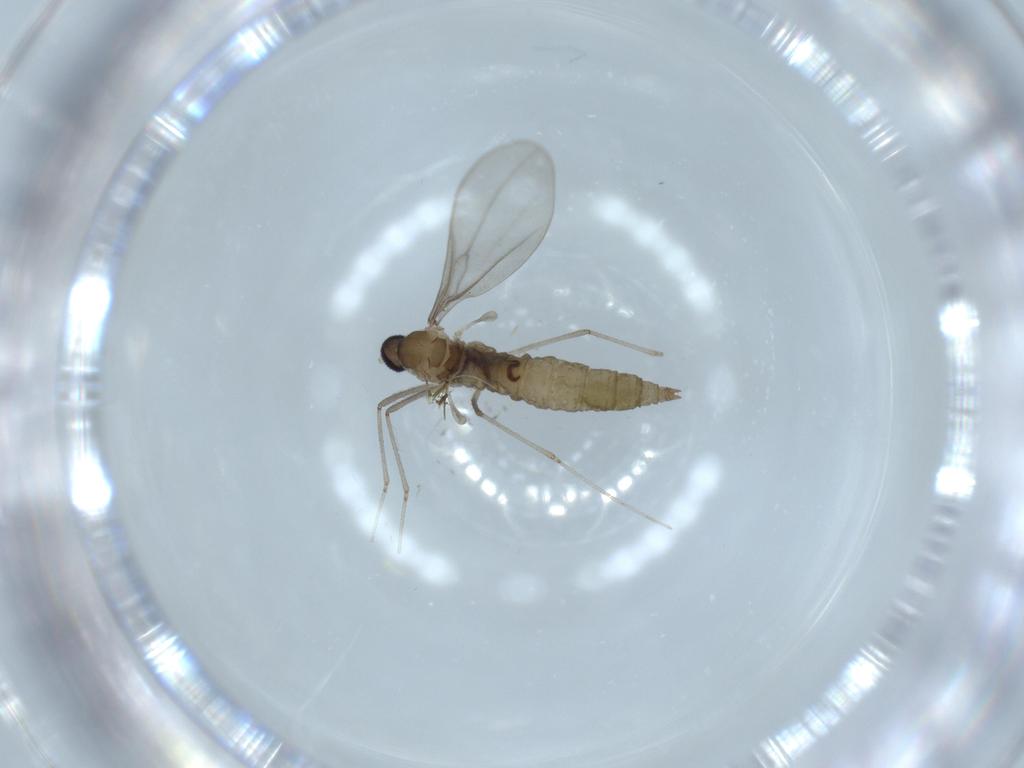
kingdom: Animalia
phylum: Arthropoda
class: Insecta
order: Diptera
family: Cecidomyiidae
